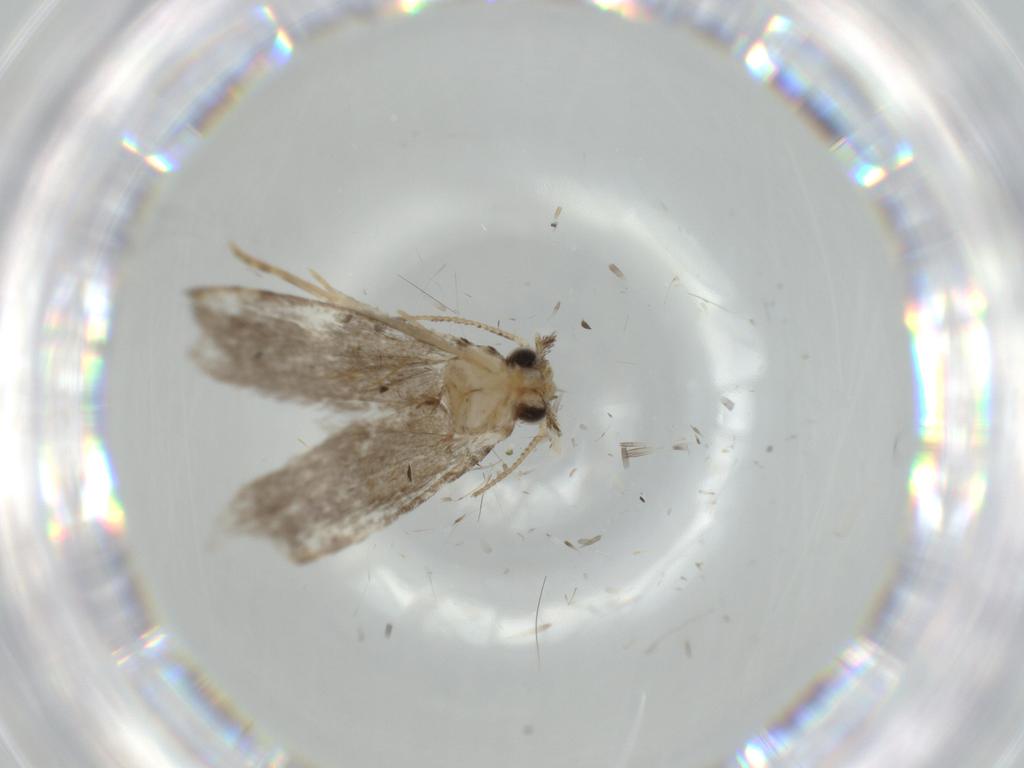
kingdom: Animalia
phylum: Arthropoda
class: Insecta
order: Lepidoptera
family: Tineidae
